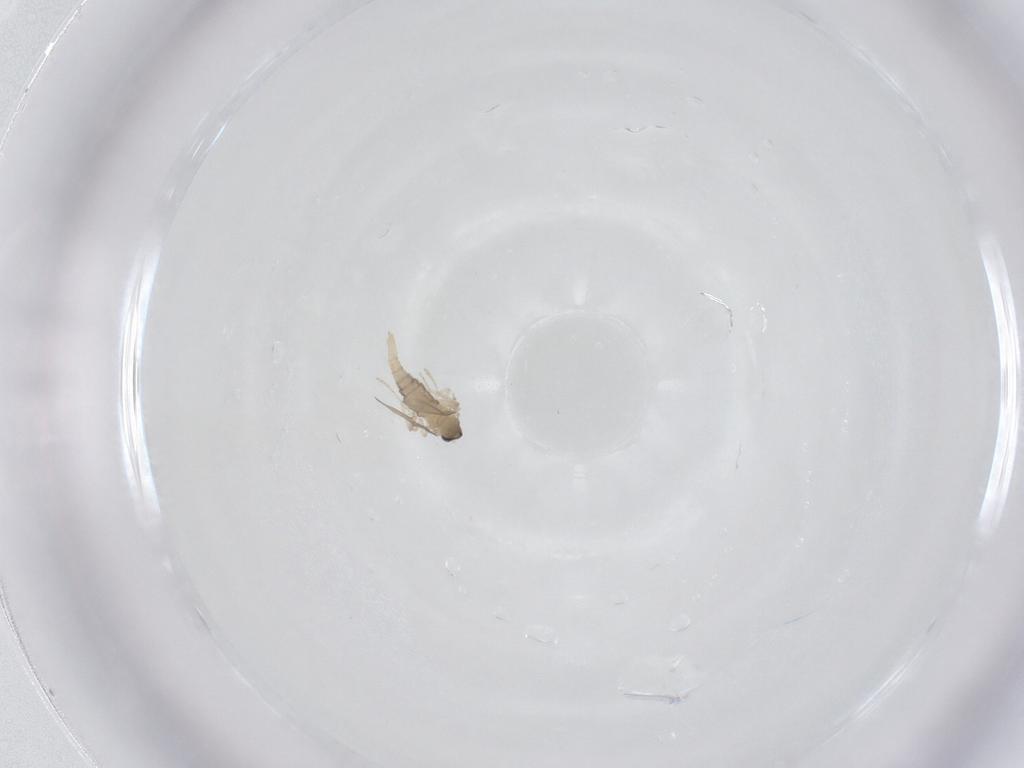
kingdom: Animalia
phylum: Arthropoda
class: Insecta
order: Diptera
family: Cecidomyiidae
